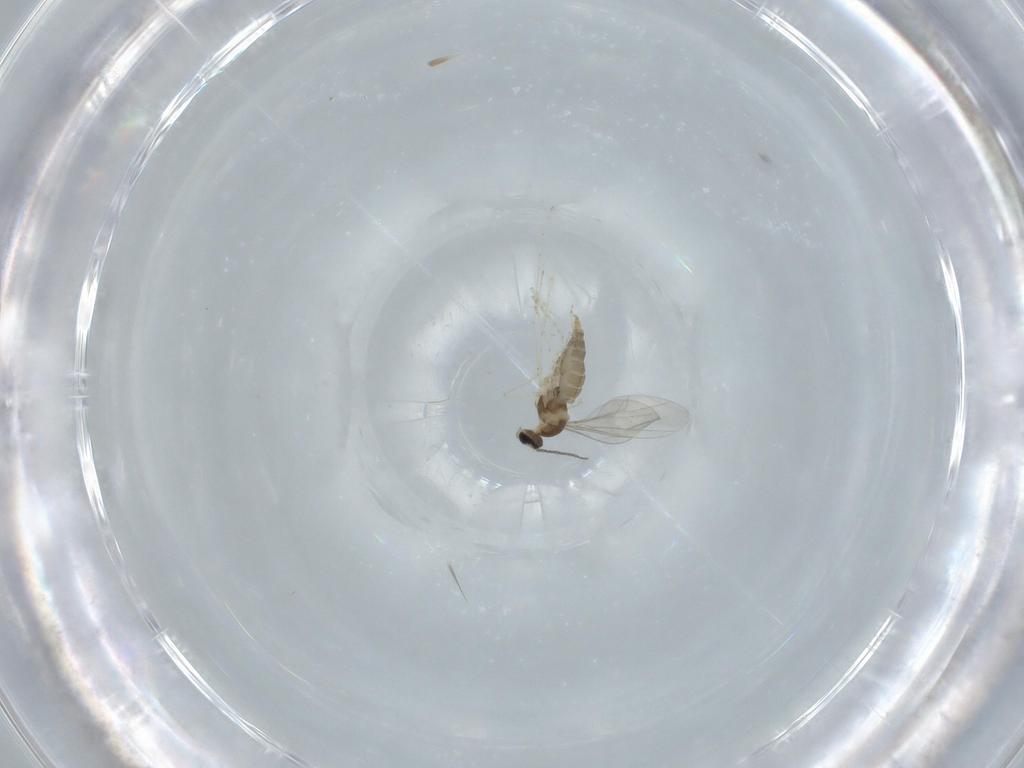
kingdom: Animalia
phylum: Arthropoda
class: Insecta
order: Diptera
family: Cecidomyiidae
